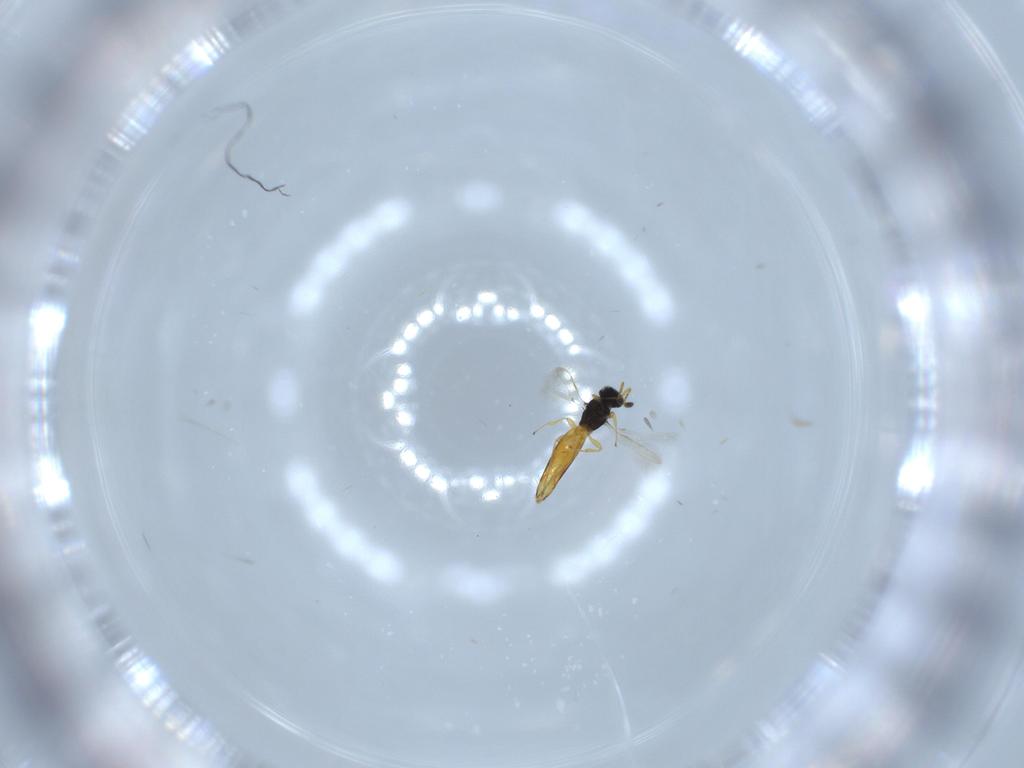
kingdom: Animalia
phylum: Arthropoda
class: Insecta
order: Hymenoptera
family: Scelionidae
